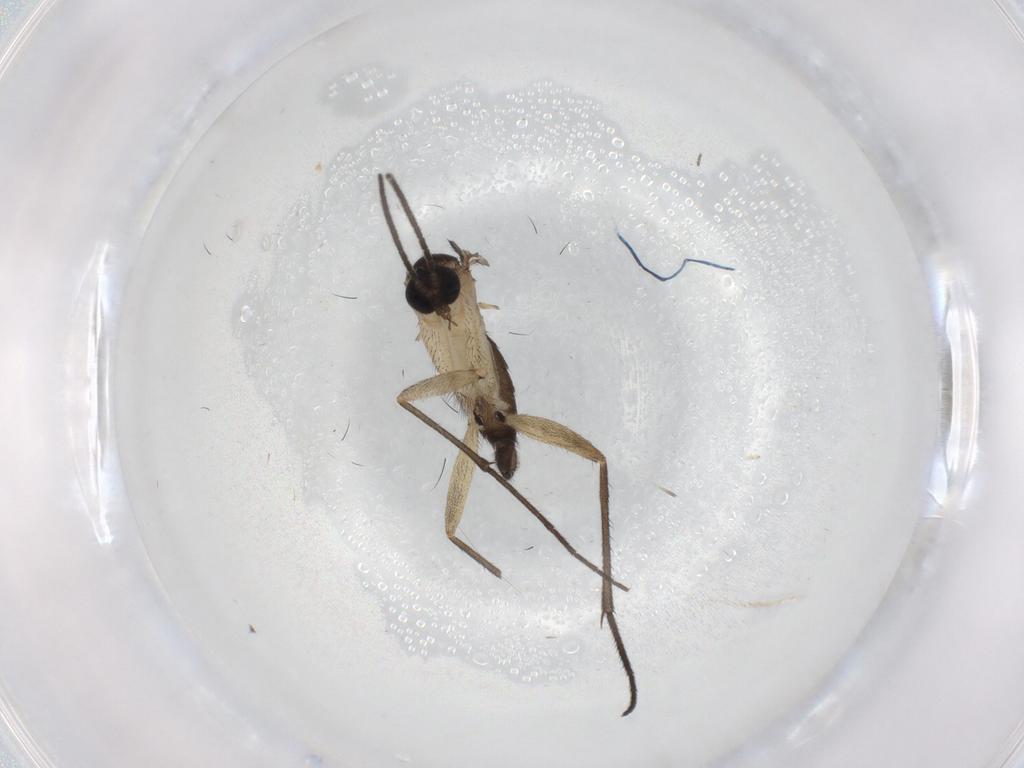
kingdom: Animalia
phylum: Arthropoda
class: Insecta
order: Diptera
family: Sciaridae
